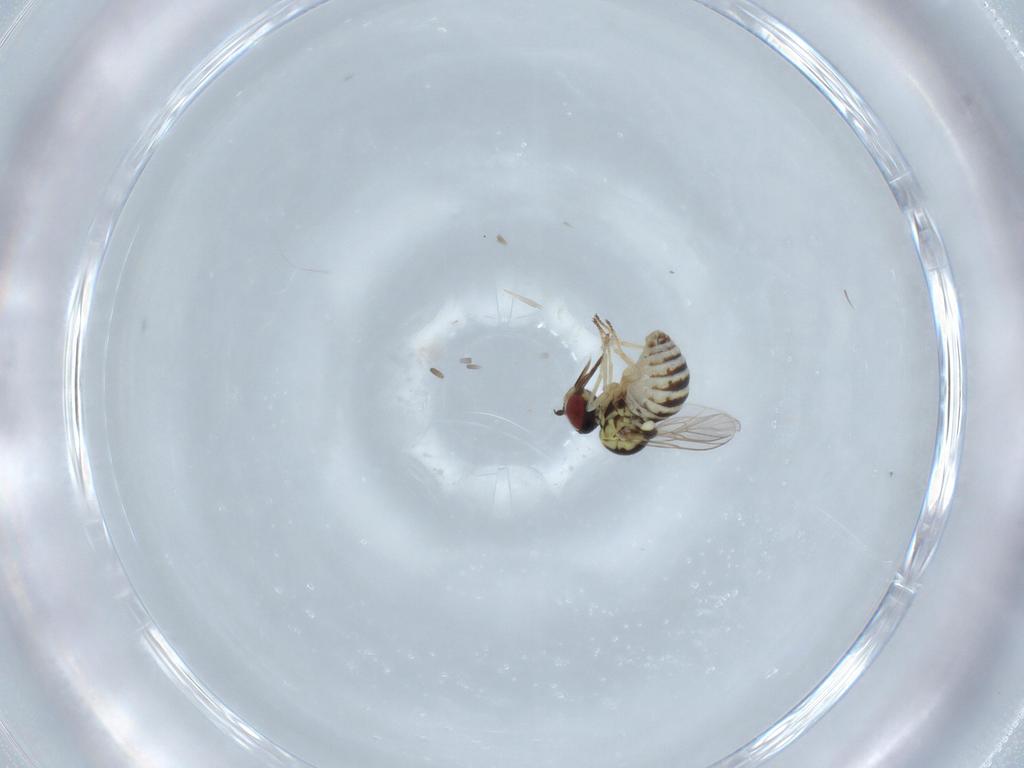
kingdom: Animalia
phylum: Arthropoda
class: Insecta
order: Diptera
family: Bombyliidae
